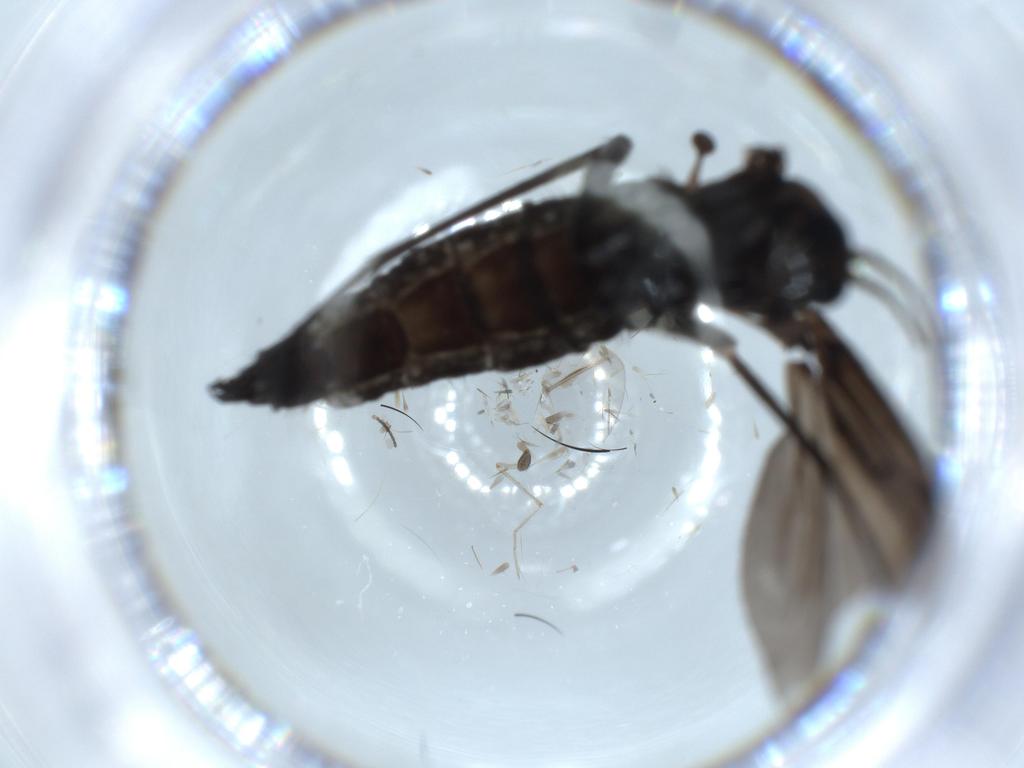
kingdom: Animalia
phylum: Arthropoda
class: Insecta
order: Diptera
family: Sciaridae
